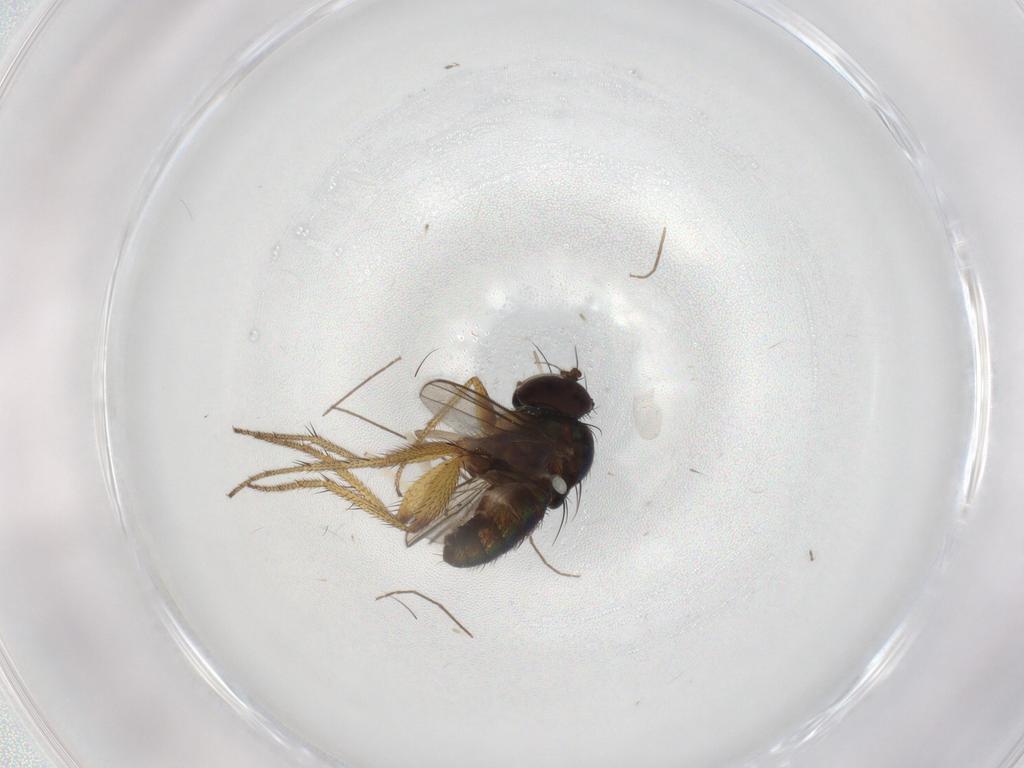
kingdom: Animalia
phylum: Arthropoda
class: Insecta
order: Diptera
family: Chironomidae
